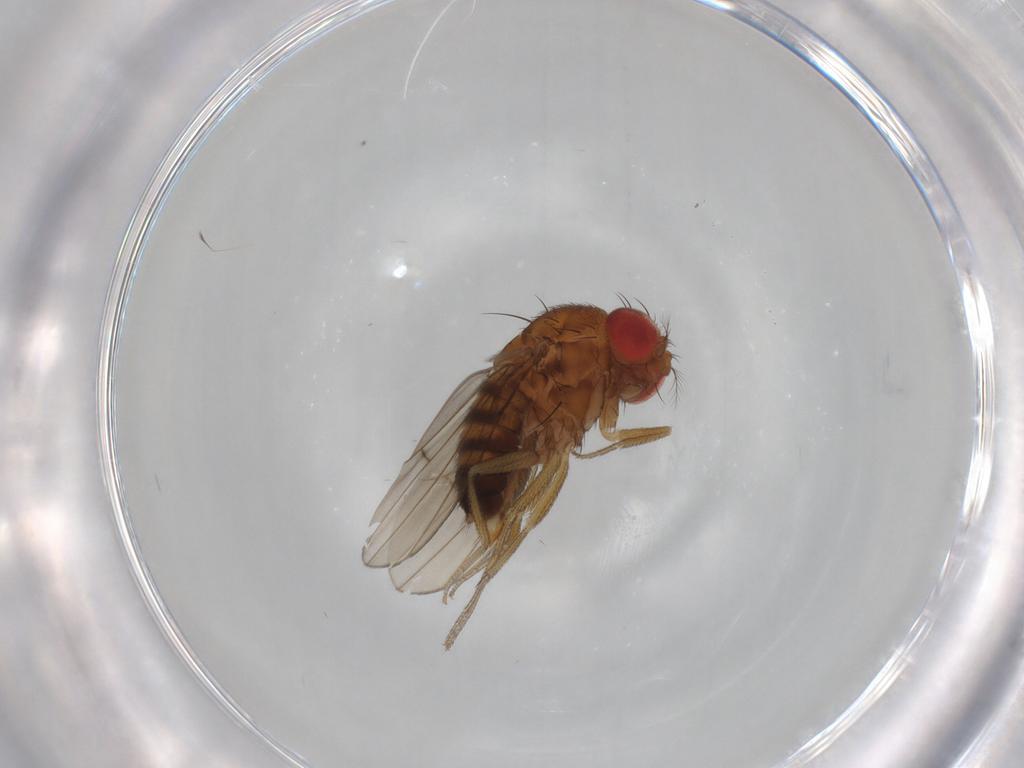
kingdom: Animalia
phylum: Arthropoda
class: Insecta
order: Diptera
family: Drosophilidae
